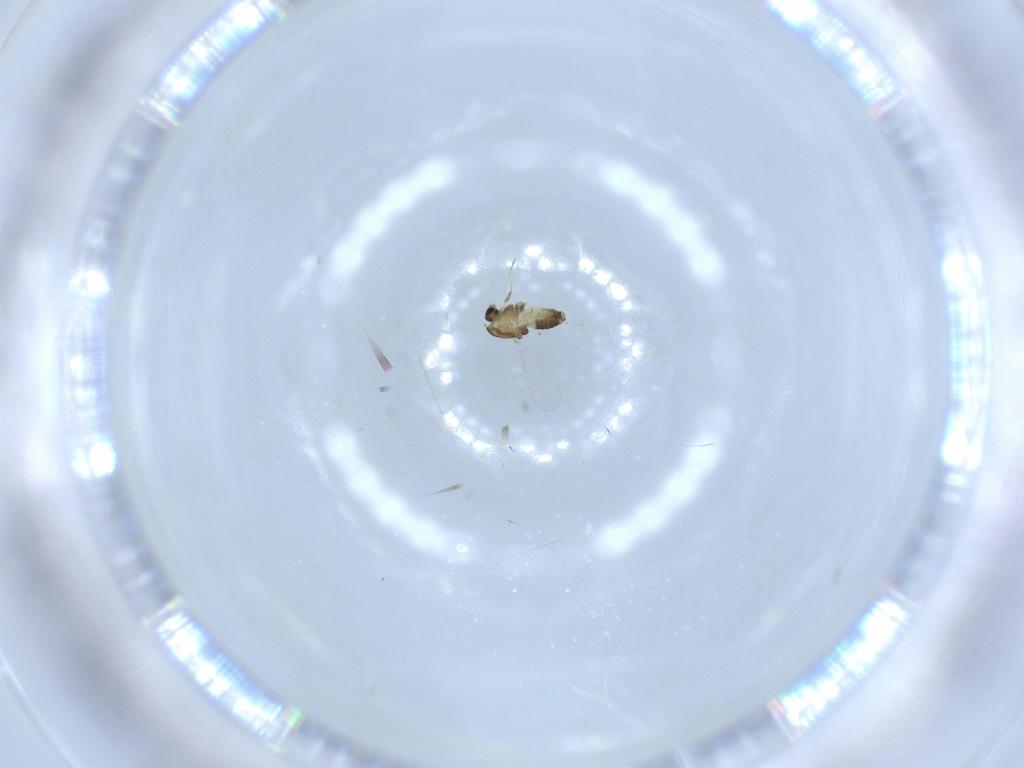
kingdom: Animalia
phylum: Arthropoda
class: Insecta
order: Diptera
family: Chironomidae
